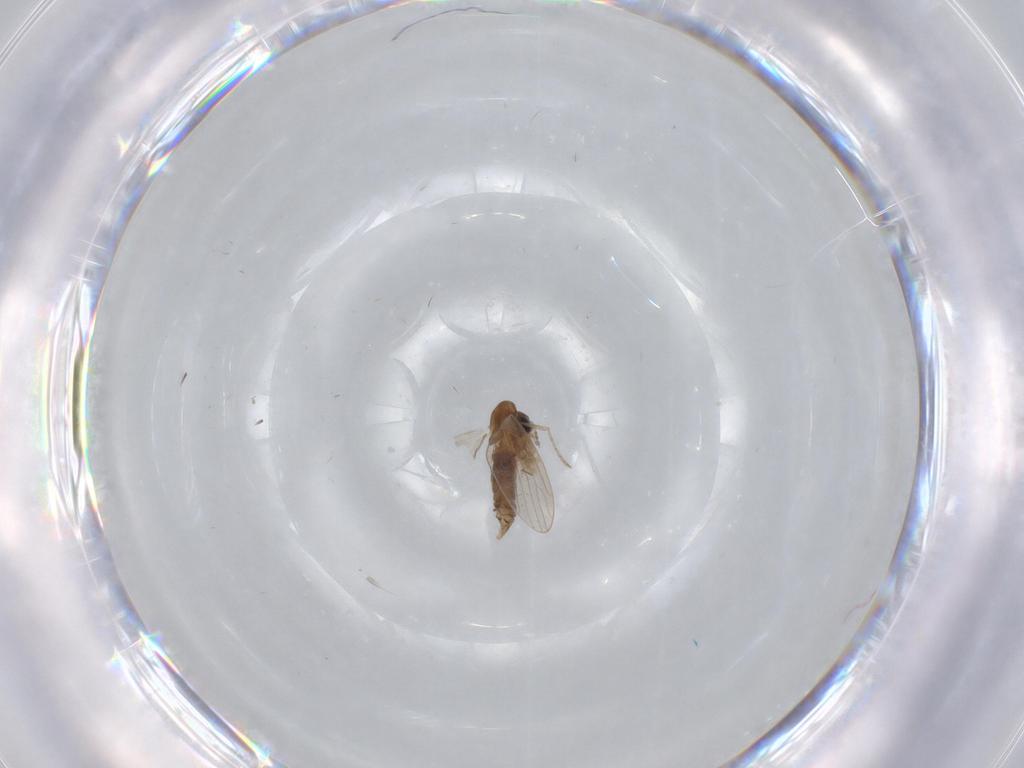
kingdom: Animalia
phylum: Arthropoda
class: Insecta
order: Diptera
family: Psychodidae
